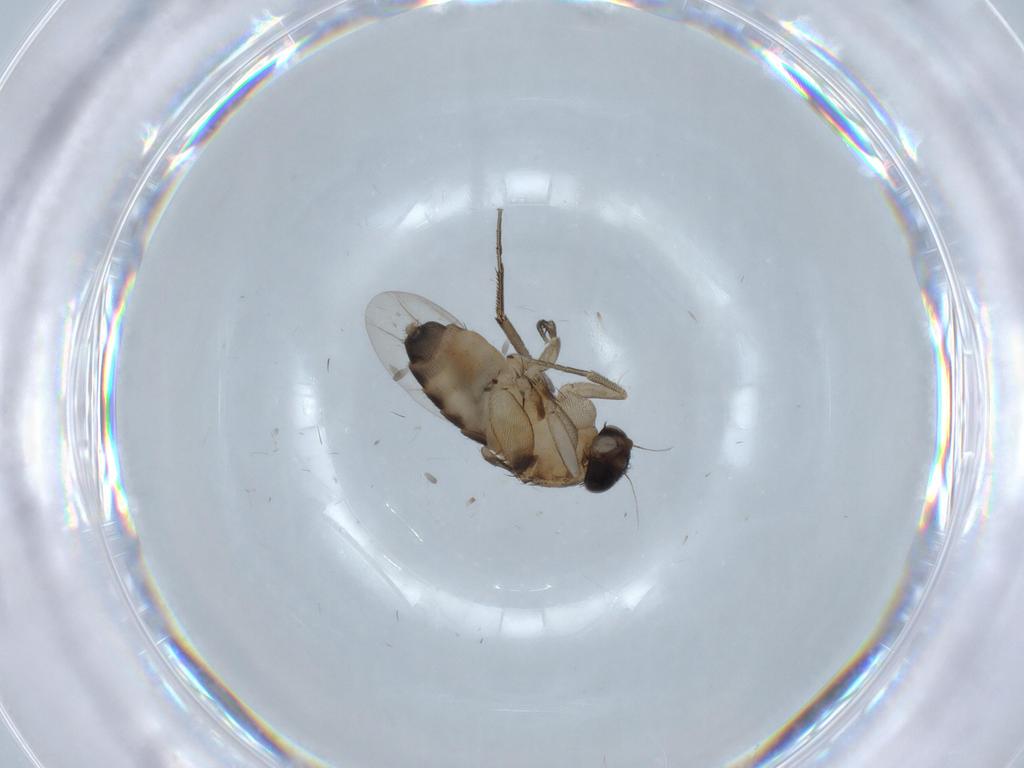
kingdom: Animalia
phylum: Arthropoda
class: Insecta
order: Diptera
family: Phoridae
